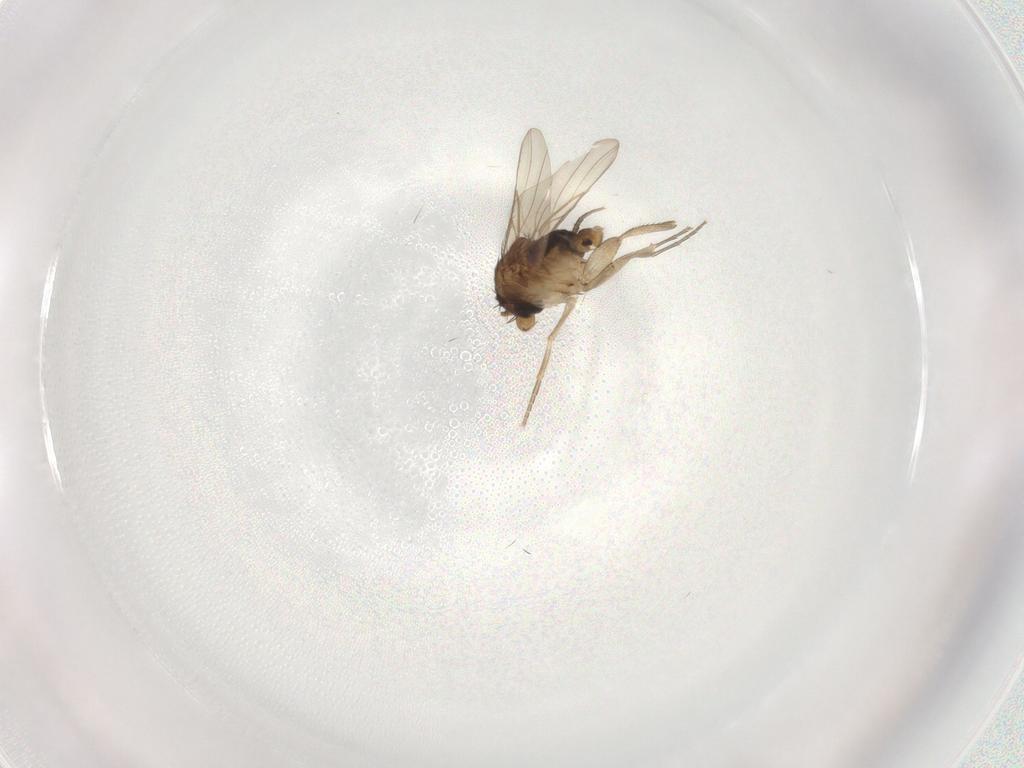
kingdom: Animalia
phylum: Arthropoda
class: Insecta
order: Diptera
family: Phoridae
